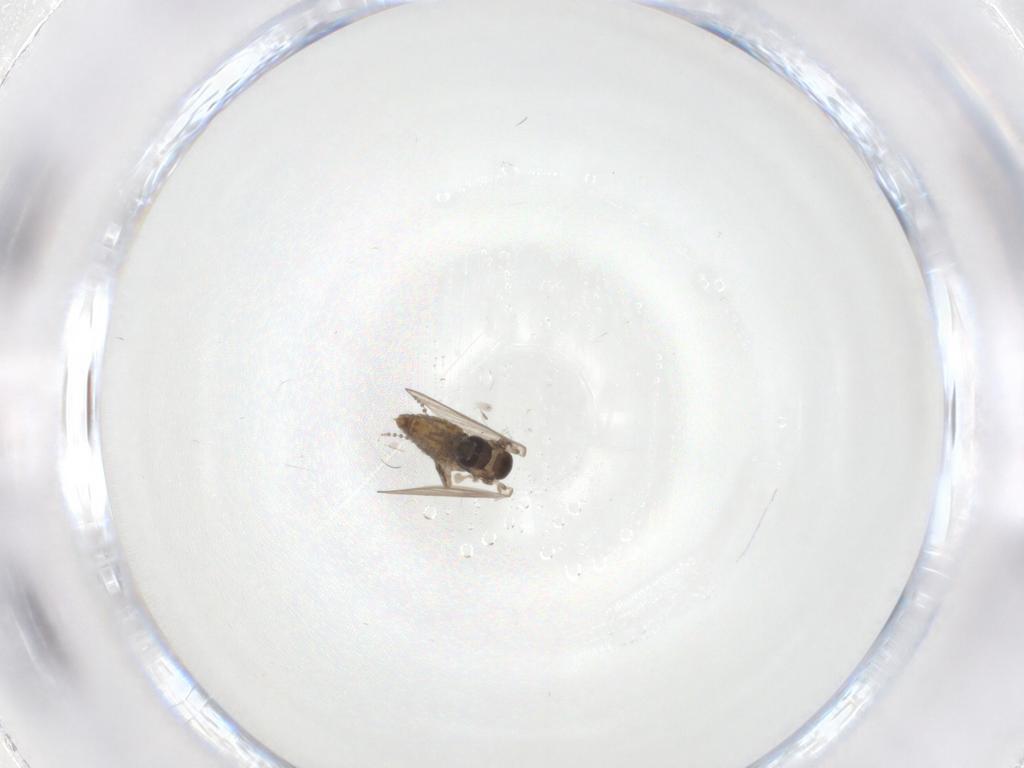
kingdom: Animalia
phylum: Arthropoda
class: Insecta
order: Diptera
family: Psychodidae
